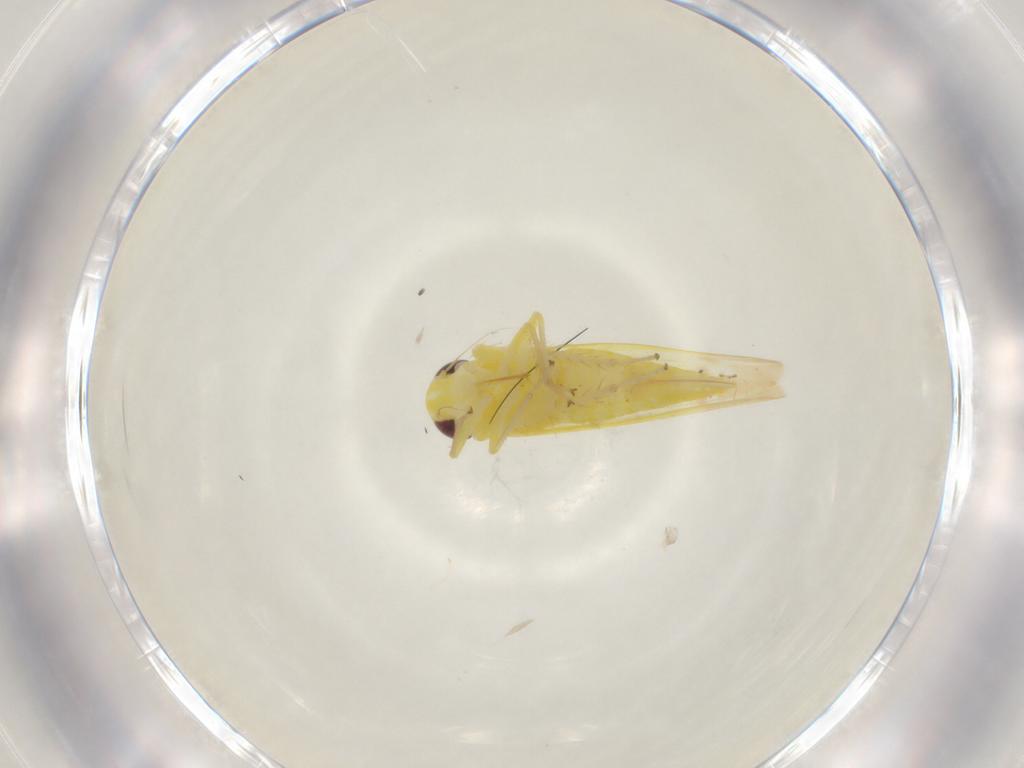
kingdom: Animalia
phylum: Arthropoda
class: Insecta
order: Hemiptera
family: Cicadellidae
